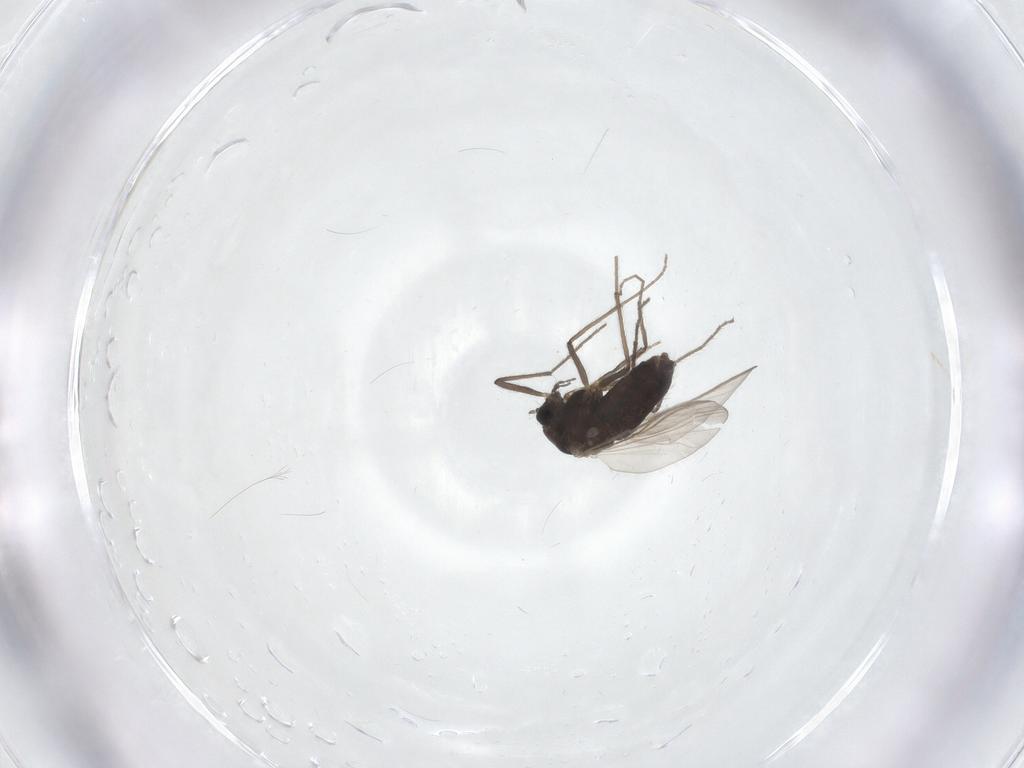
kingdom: Animalia
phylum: Arthropoda
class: Insecta
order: Diptera
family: Chironomidae
